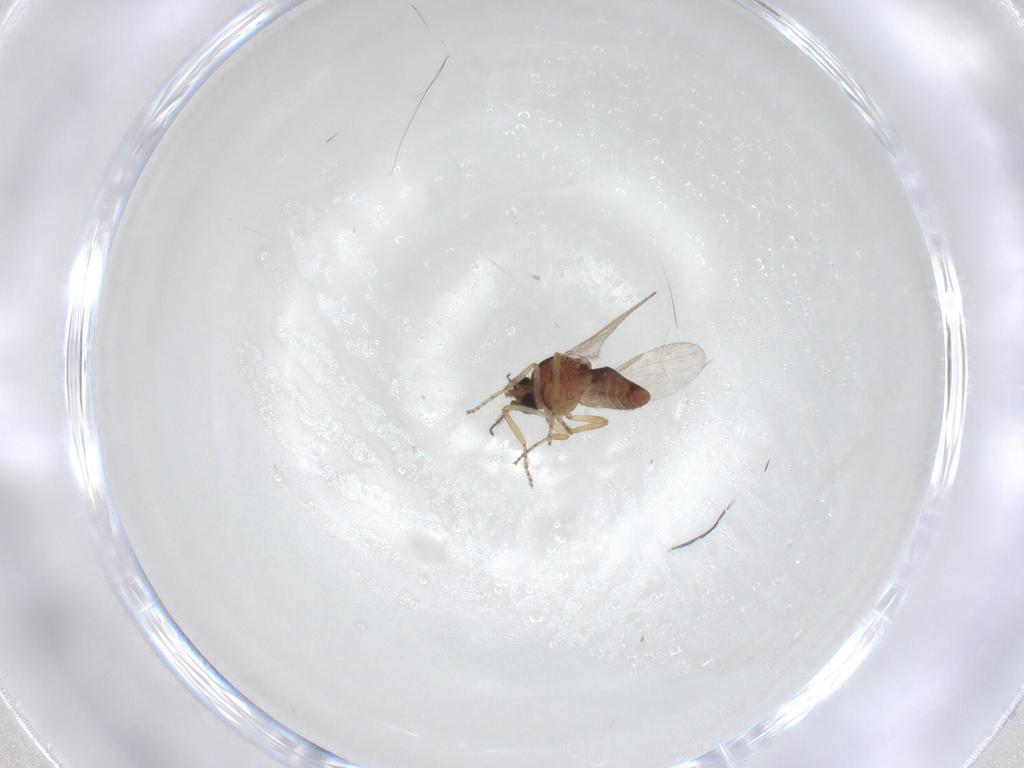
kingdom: Animalia
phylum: Arthropoda
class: Insecta
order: Diptera
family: Ceratopogonidae
